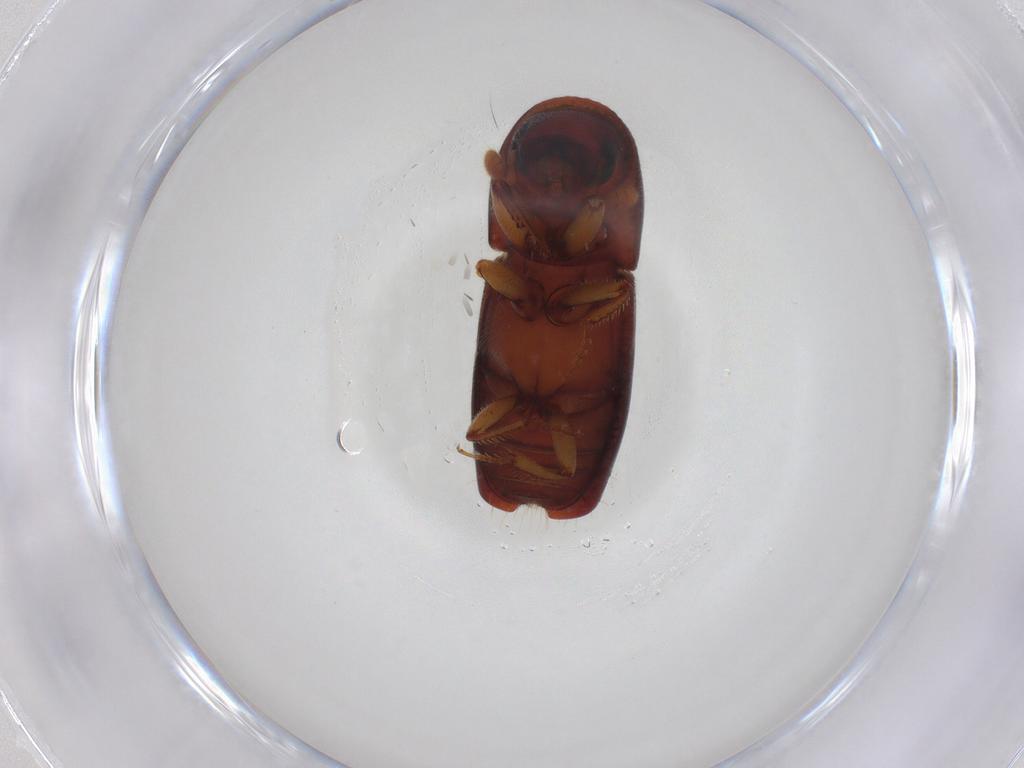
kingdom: Animalia
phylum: Arthropoda
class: Insecta
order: Coleoptera
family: Curculionidae
